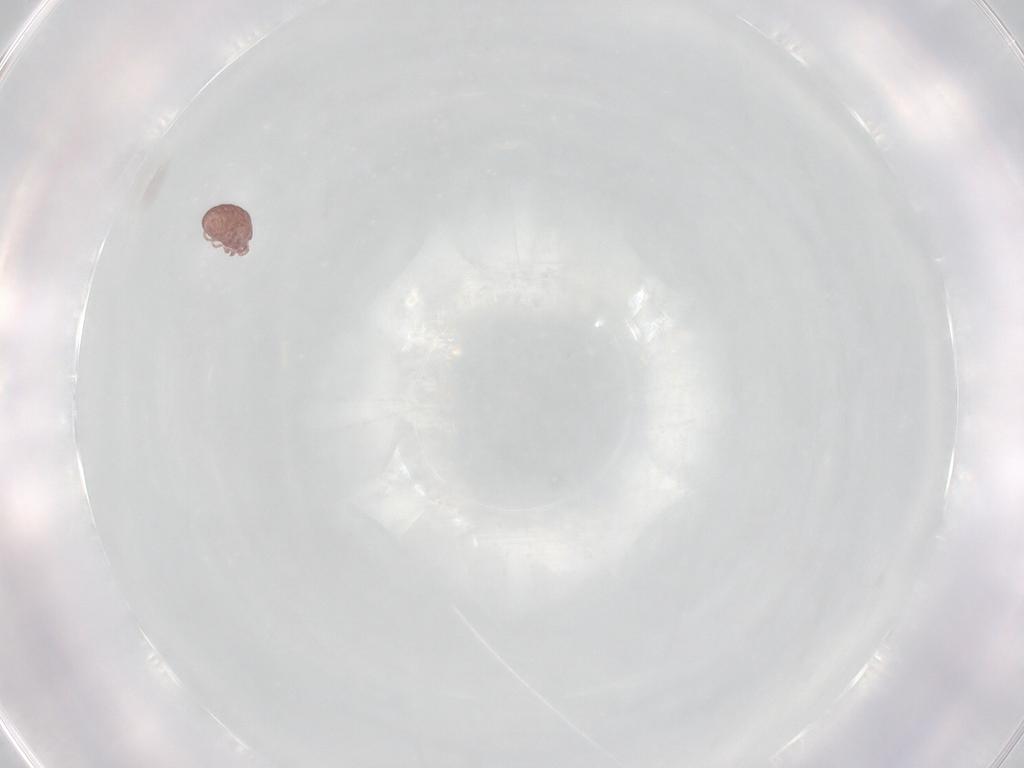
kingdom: Animalia
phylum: Arthropoda
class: Arachnida
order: Sarcoptiformes
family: Alycidae
